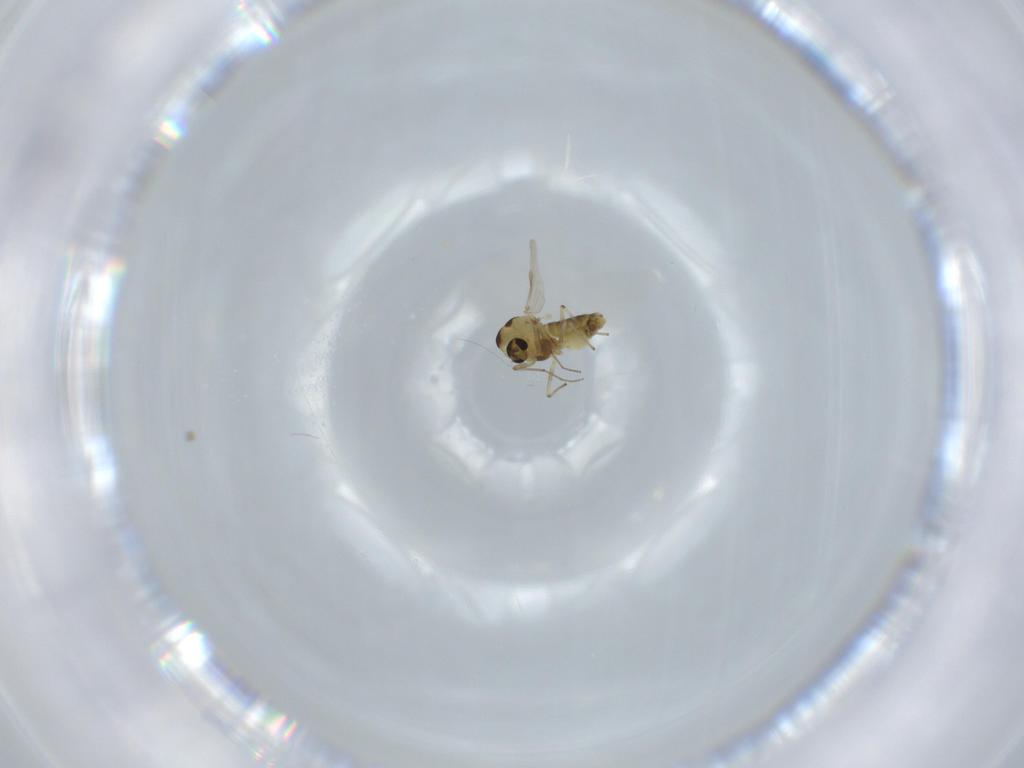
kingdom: Animalia
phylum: Arthropoda
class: Insecta
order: Diptera
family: Chironomidae
